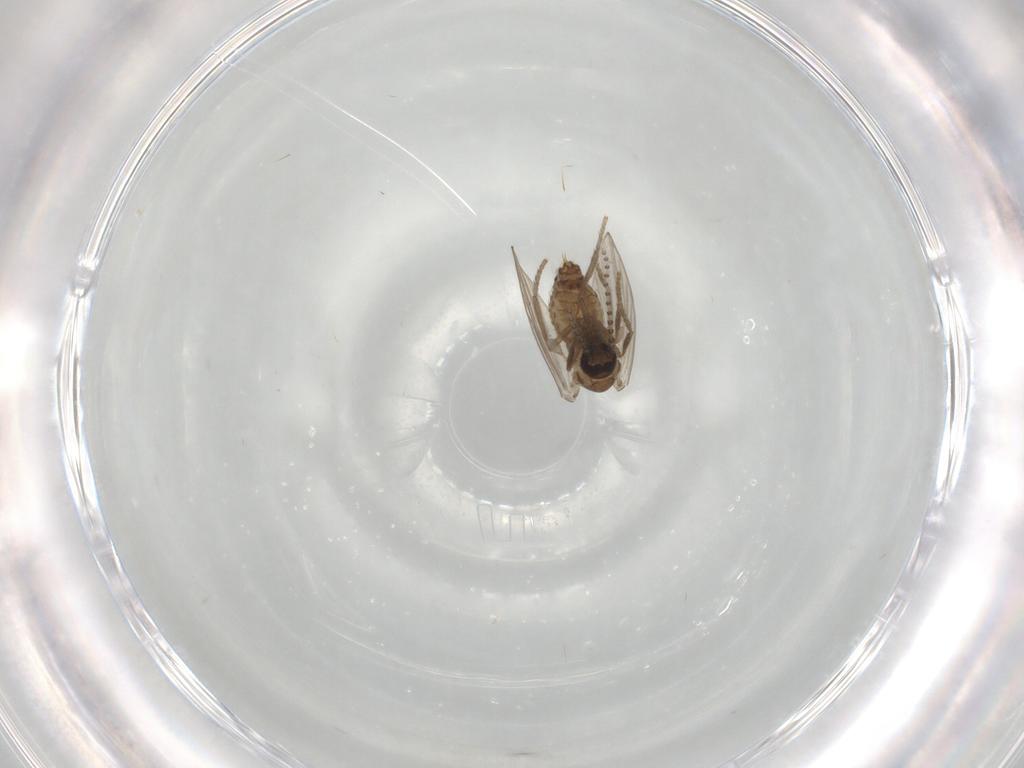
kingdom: Animalia
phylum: Arthropoda
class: Insecta
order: Diptera
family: Psychodidae
